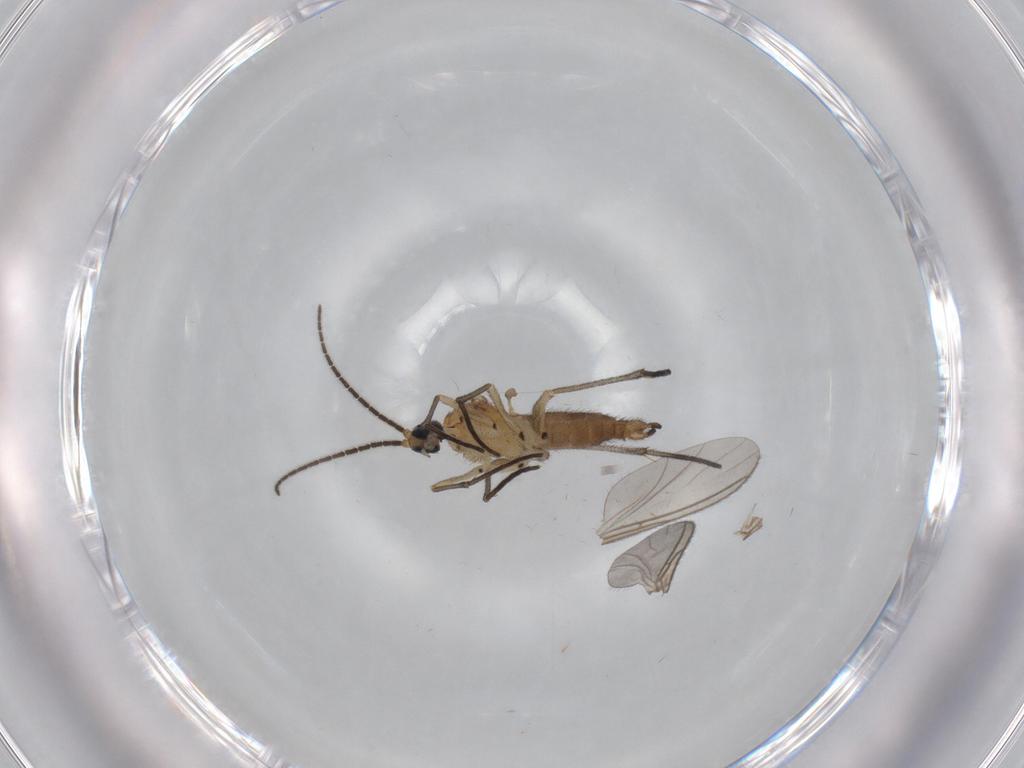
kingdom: Animalia
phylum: Arthropoda
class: Insecta
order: Diptera
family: Sciaridae
